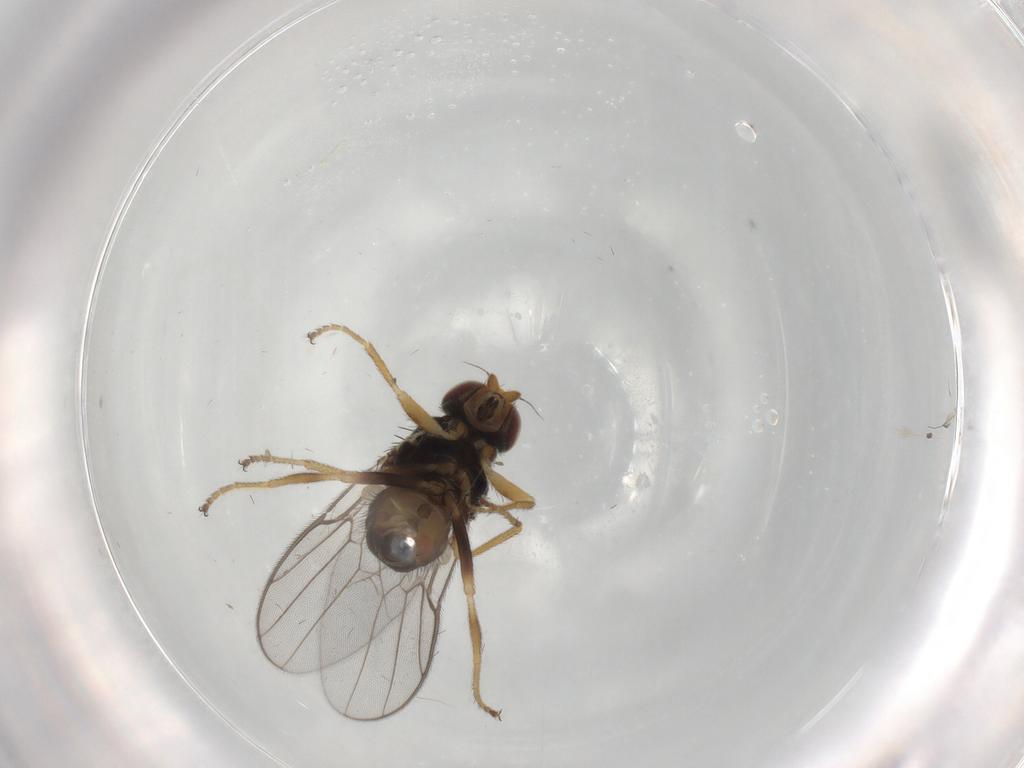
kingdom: Animalia
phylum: Arthropoda
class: Insecta
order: Diptera
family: Chloropidae
